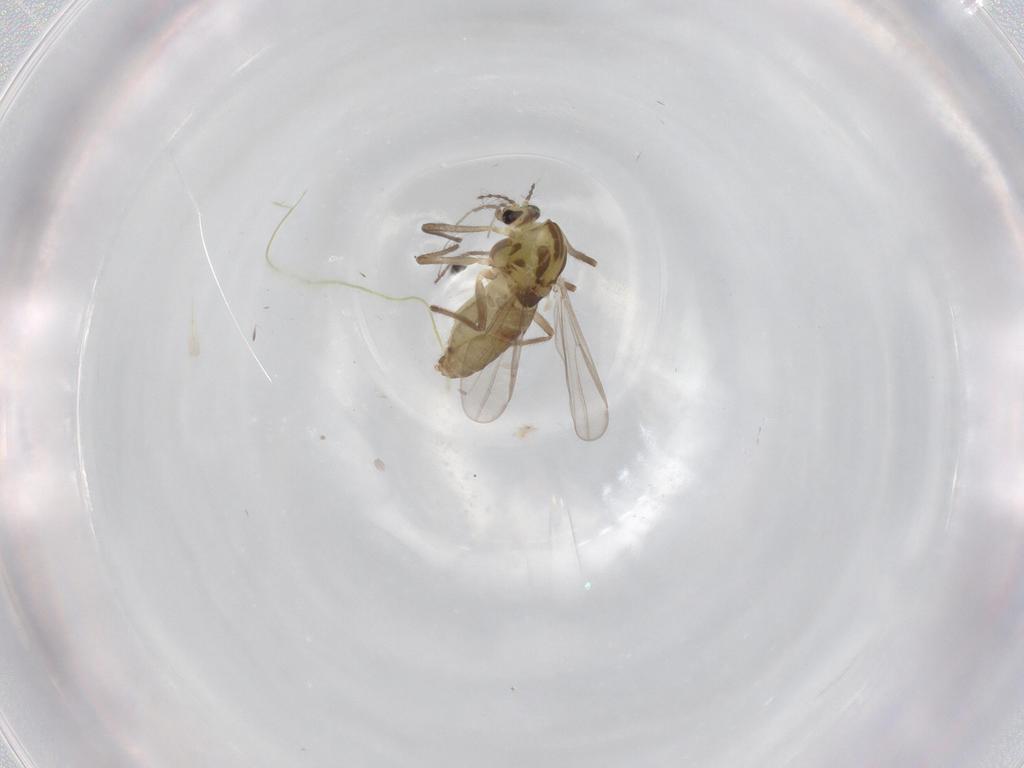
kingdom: Animalia
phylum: Arthropoda
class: Insecta
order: Diptera
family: Chironomidae
